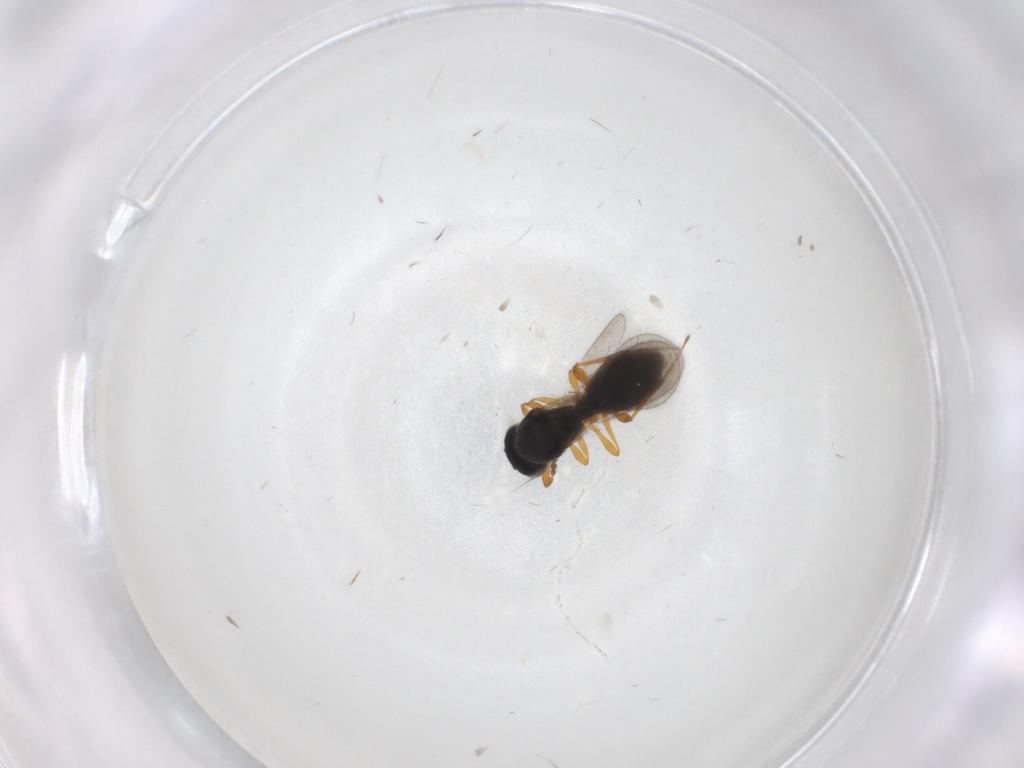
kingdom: Animalia
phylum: Arthropoda
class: Insecta
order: Hymenoptera
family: Platygastridae
